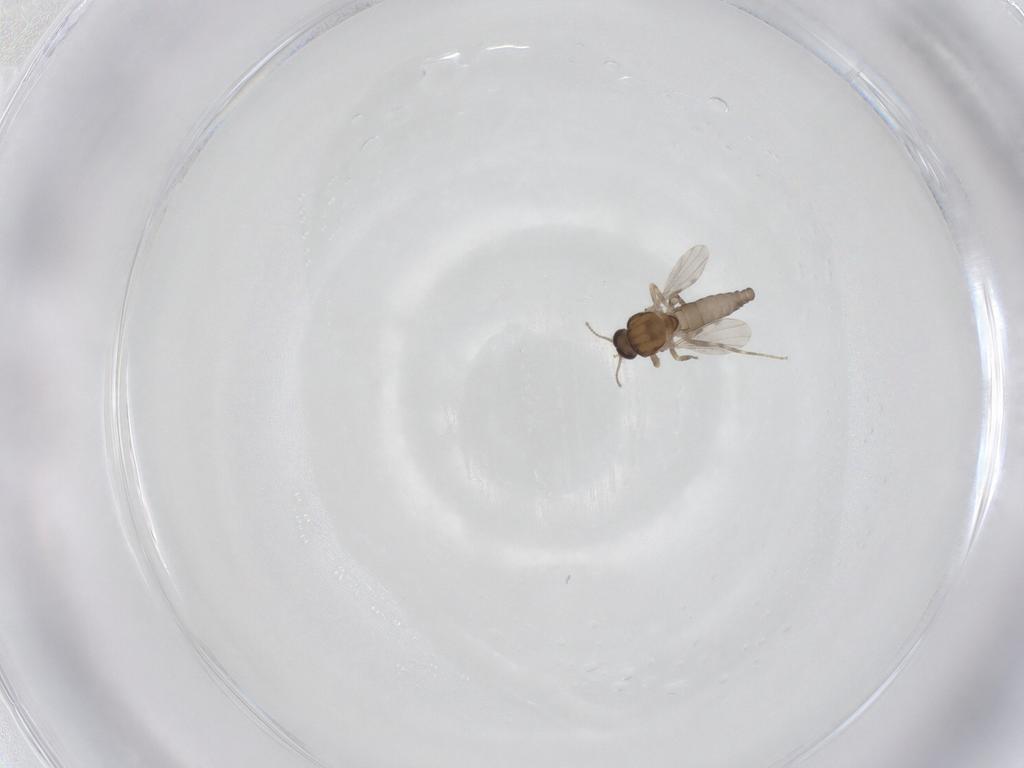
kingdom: Animalia
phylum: Arthropoda
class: Insecta
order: Diptera
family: Ceratopogonidae
